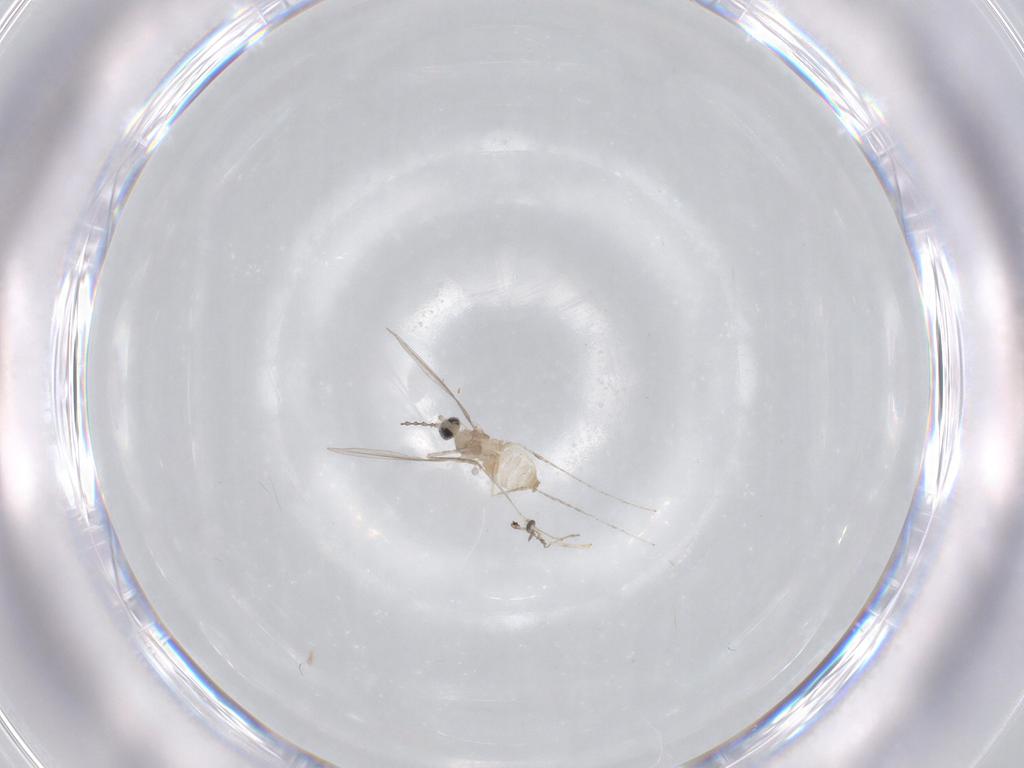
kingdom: Animalia
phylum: Arthropoda
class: Insecta
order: Diptera
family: Cecidomyiidae
